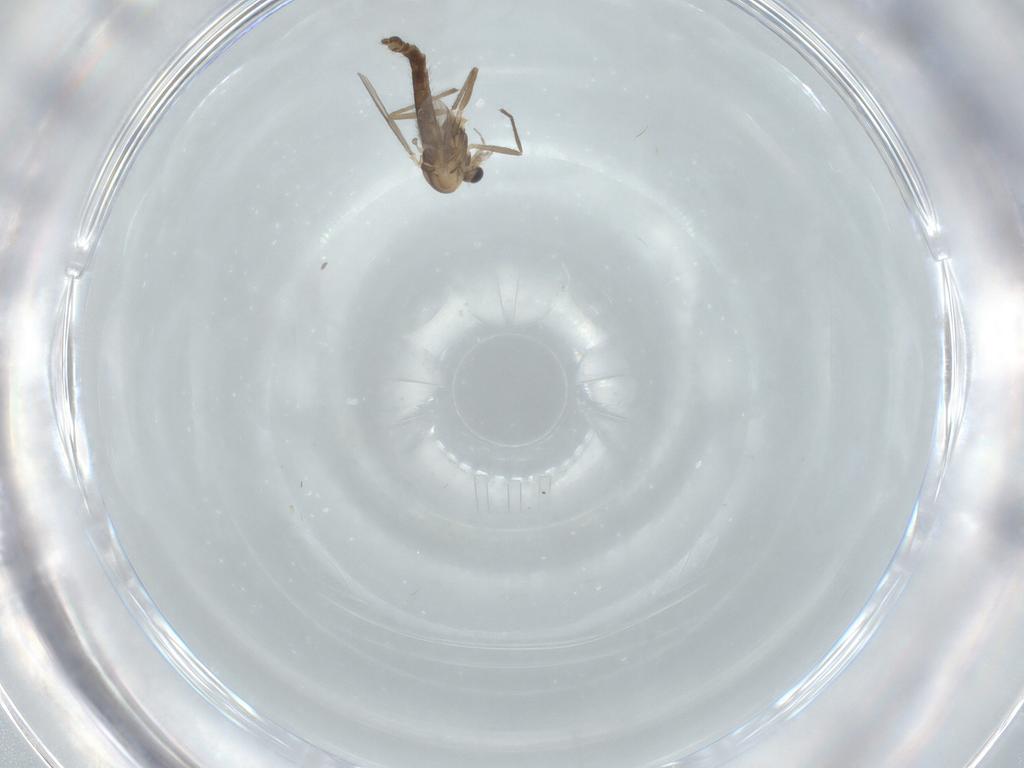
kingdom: Animalia
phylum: Arthropoda
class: Insecta
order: Diptera
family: Chironomidae
